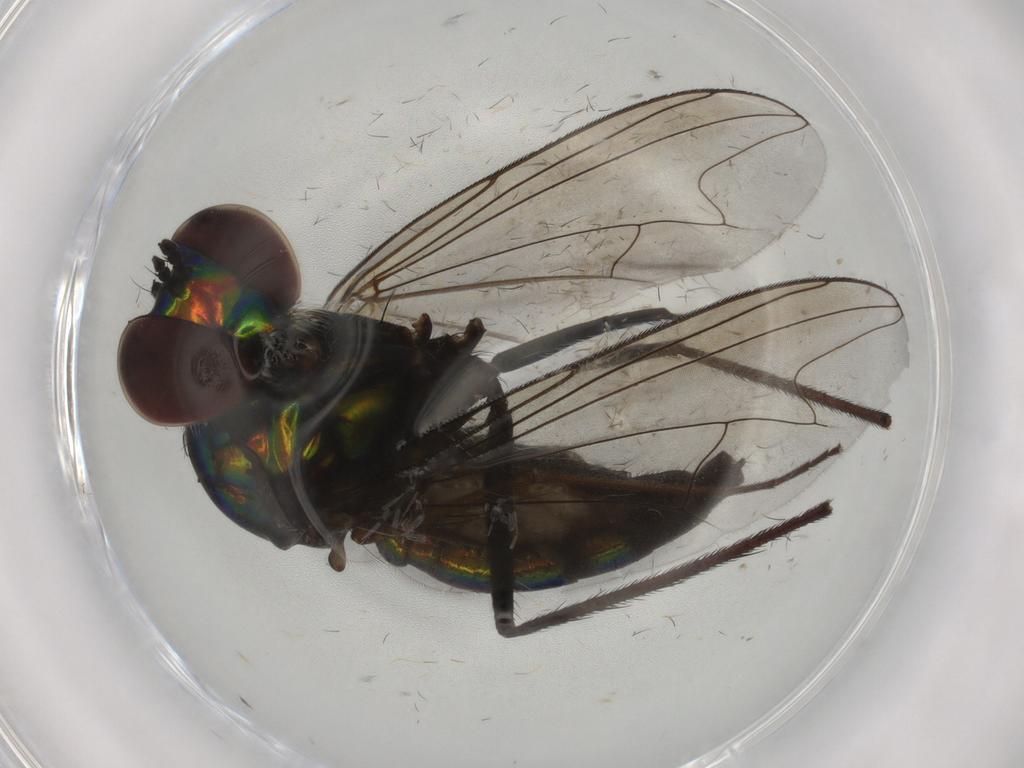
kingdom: Animalia
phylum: Arthropoda
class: Insecta
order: Diptera
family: Dolichopodidae
